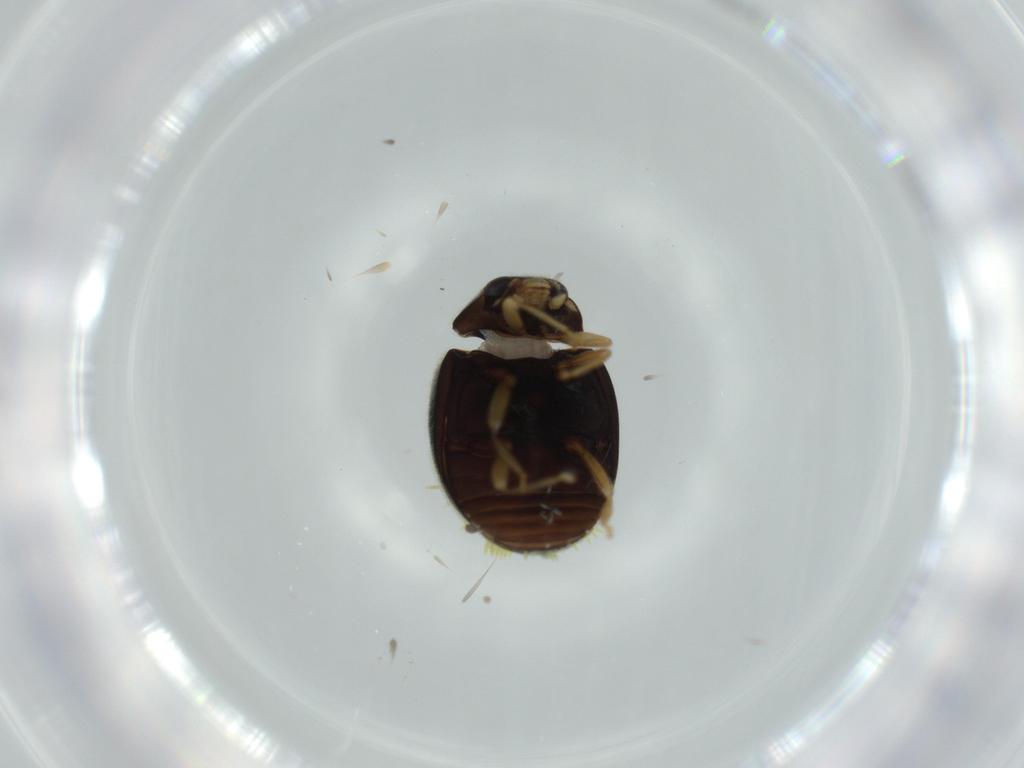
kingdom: Animalia
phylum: Arthropoda
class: Insecta
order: Coleoptera
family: Coccinellidae
